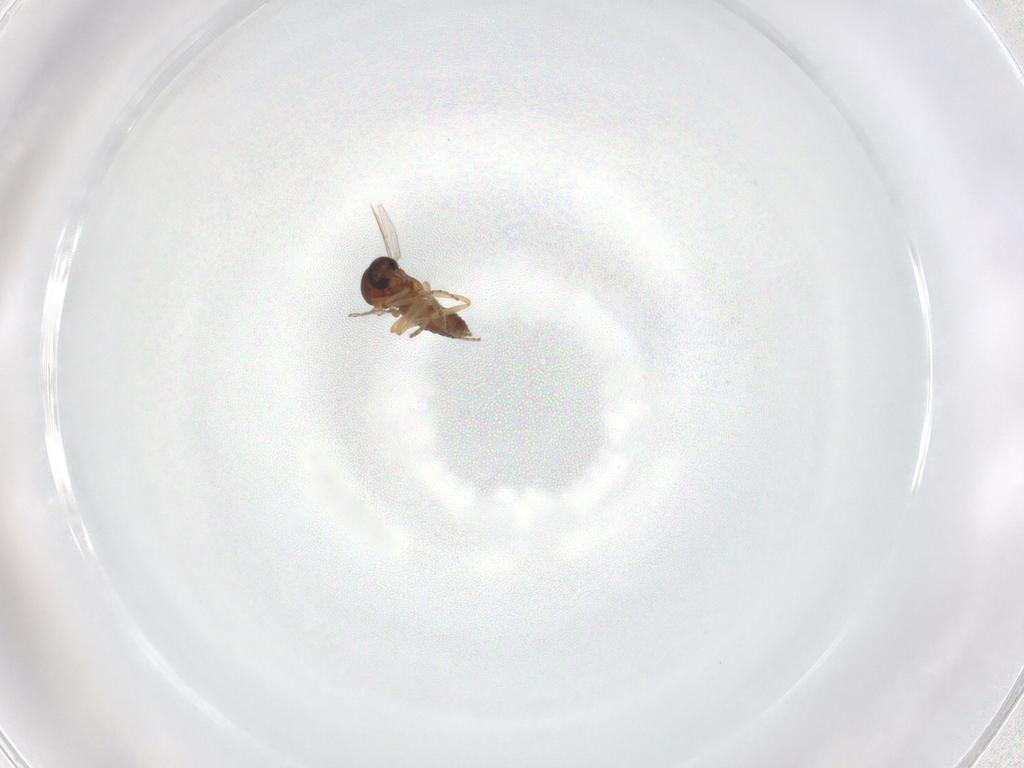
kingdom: Animalia
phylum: Arthropoda
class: Insecta
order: Diptera
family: Ceratopogonidae
